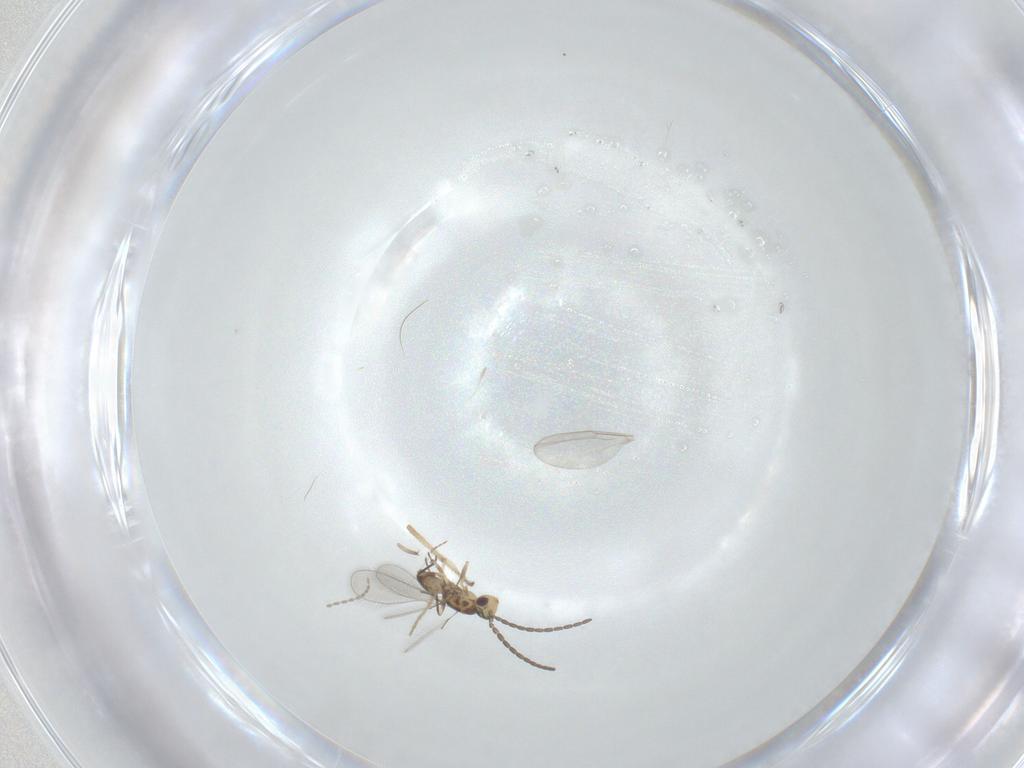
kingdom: Animalia
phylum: Arthropoda
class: Insecta
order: Hymenoptera
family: Mymaridae
